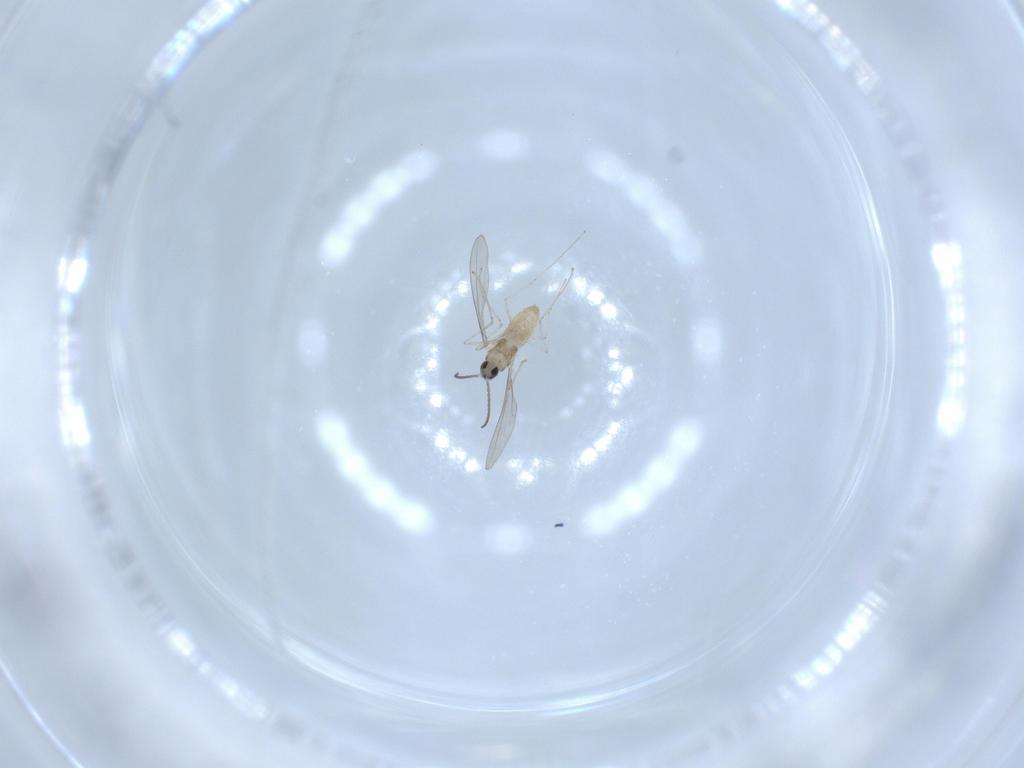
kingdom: Animalia
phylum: Arthropoda
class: Insecta
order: Diptera
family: Cecidomyiidae
